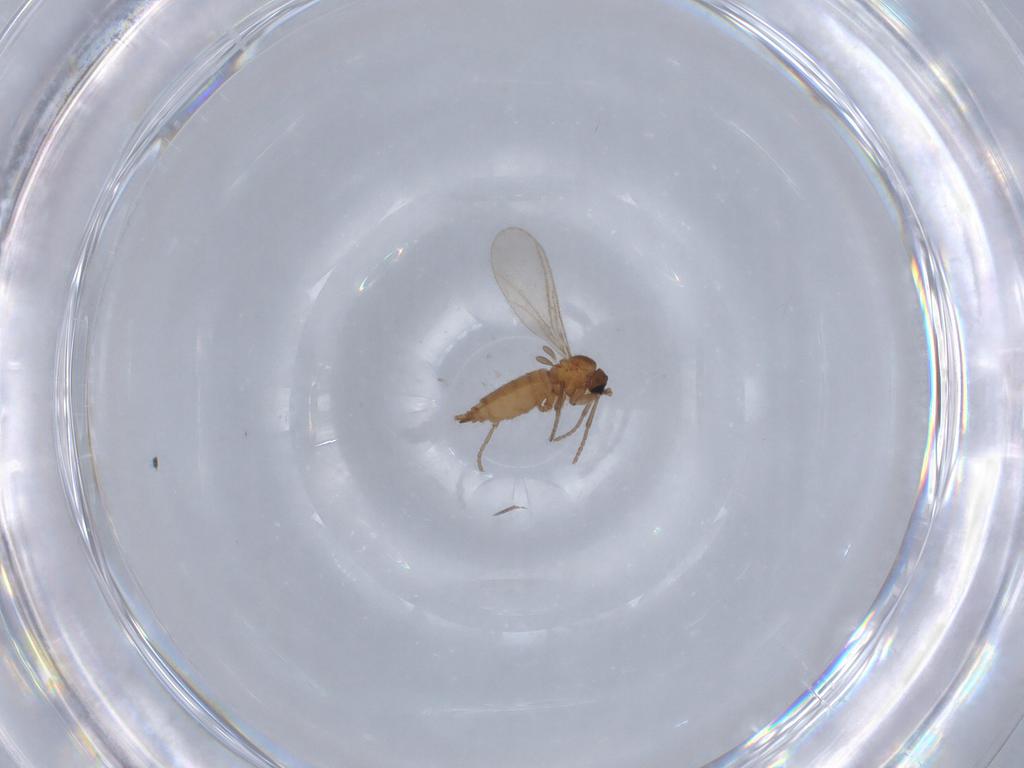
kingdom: Animalia
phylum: Arthropoda
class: Insecta
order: Diptera
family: Sciaridae
